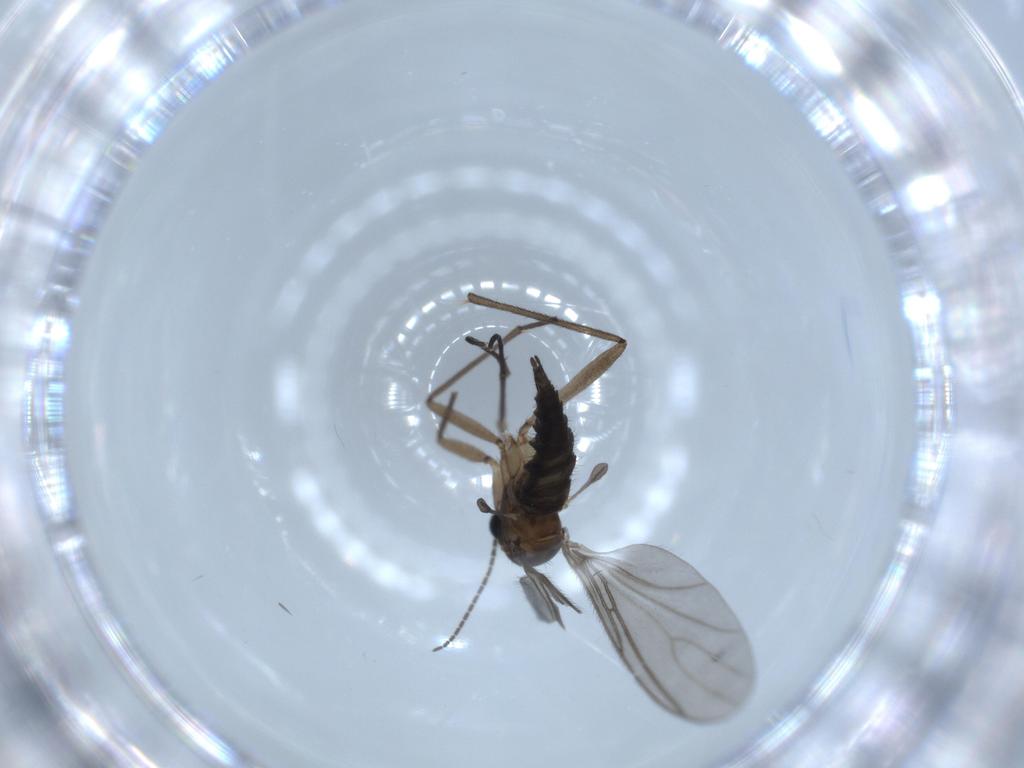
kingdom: Animalia
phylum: Arthropoda
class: Insecta
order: Diptera
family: Sciaridae
